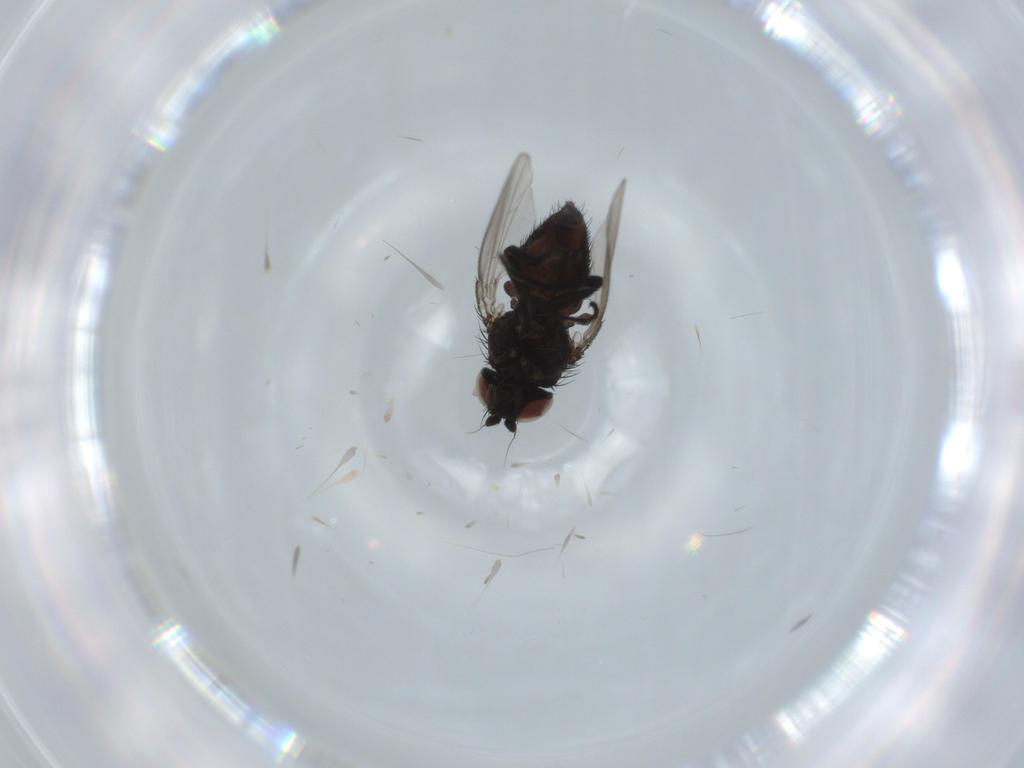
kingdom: Animalia
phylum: Arthropoda
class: Insecta
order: Diptera
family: Milichiidae
